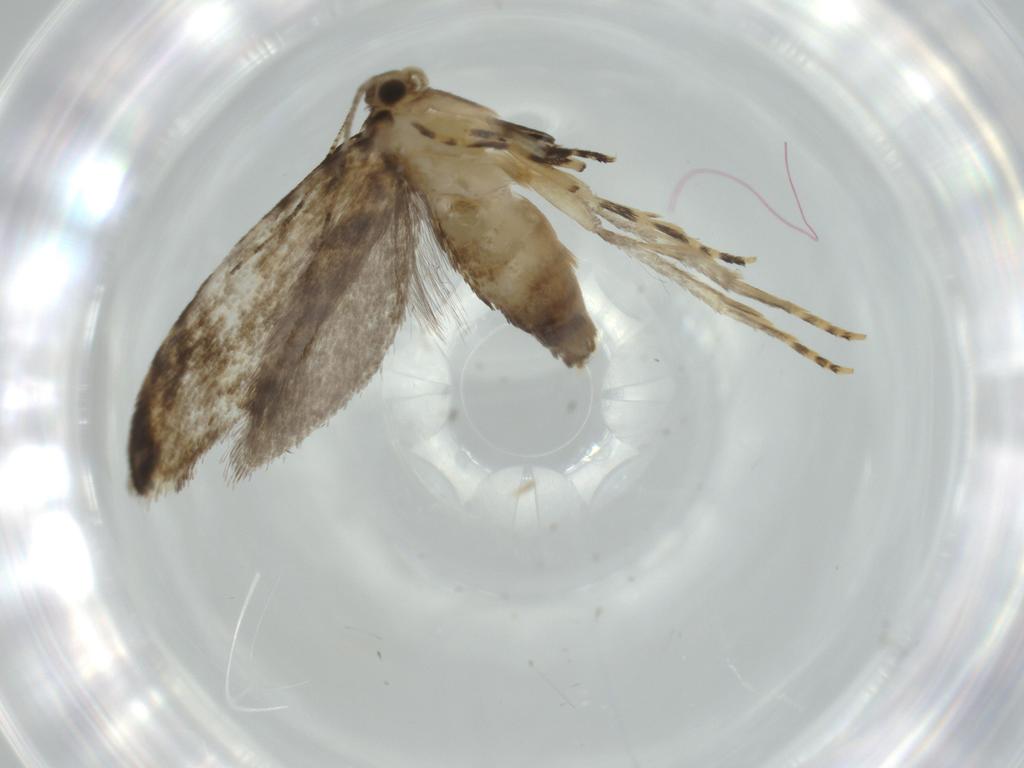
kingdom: Animalia
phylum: Arthropoda
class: Insecta
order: Lepidoptera
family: Tineidae
